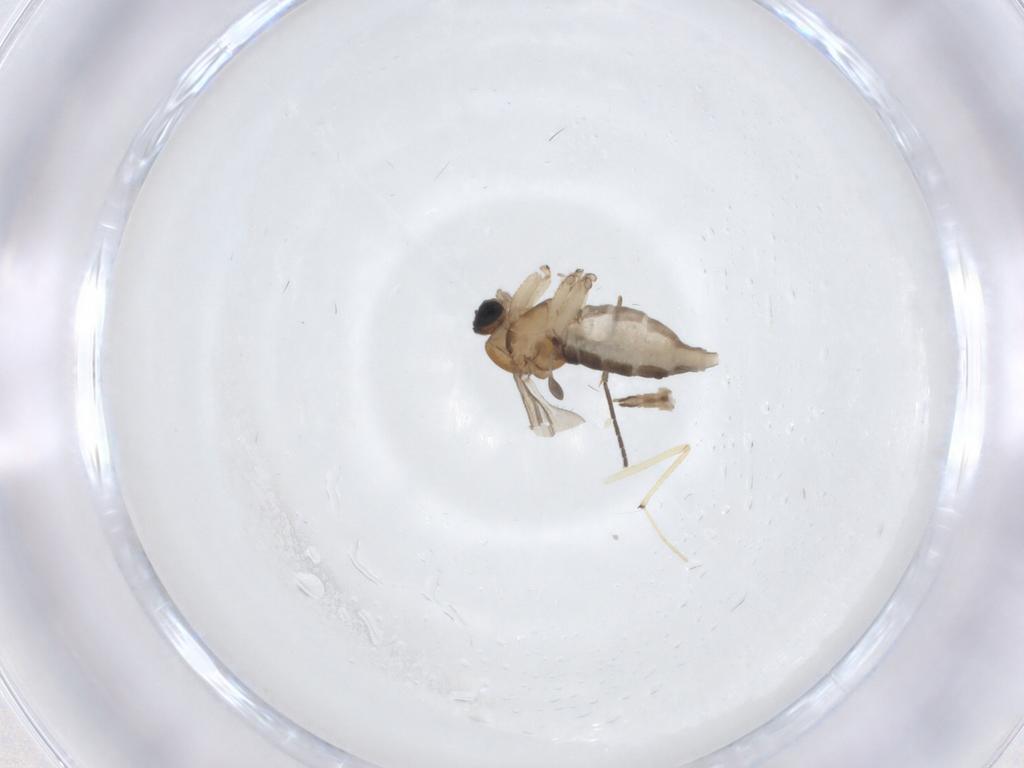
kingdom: Animalia
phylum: Arthropoda
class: Insecta
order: Diptera
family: Sciaridae
